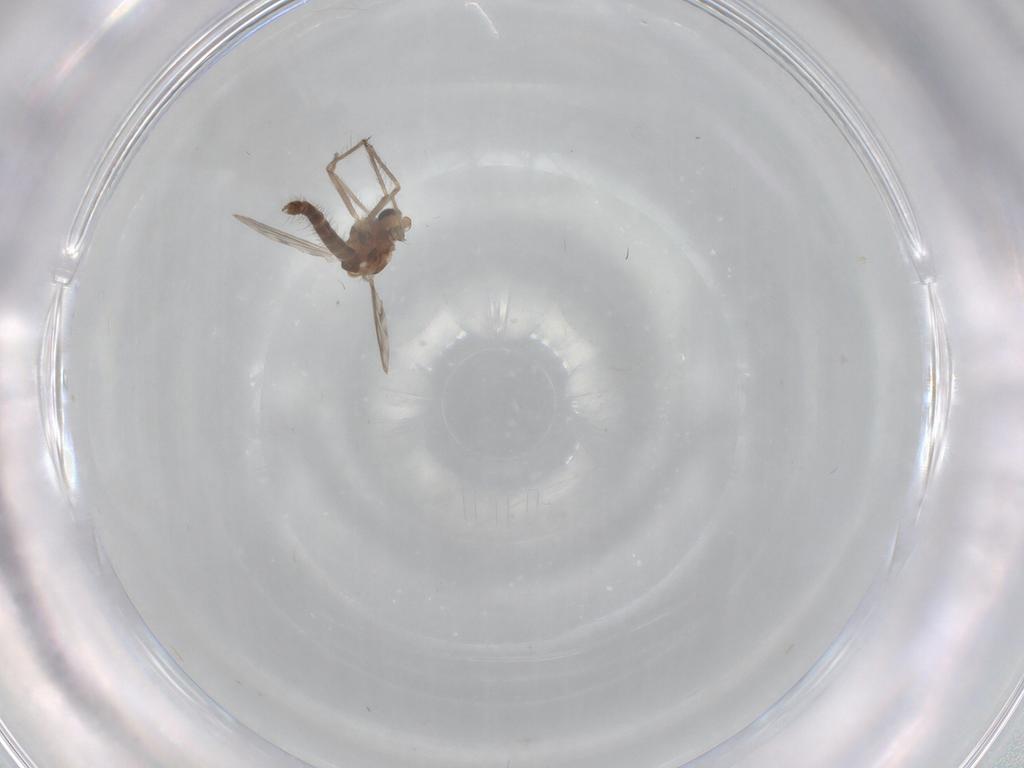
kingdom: Animalia
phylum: Arthropoda
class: Insecta
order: Diptera
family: Chironomidae
